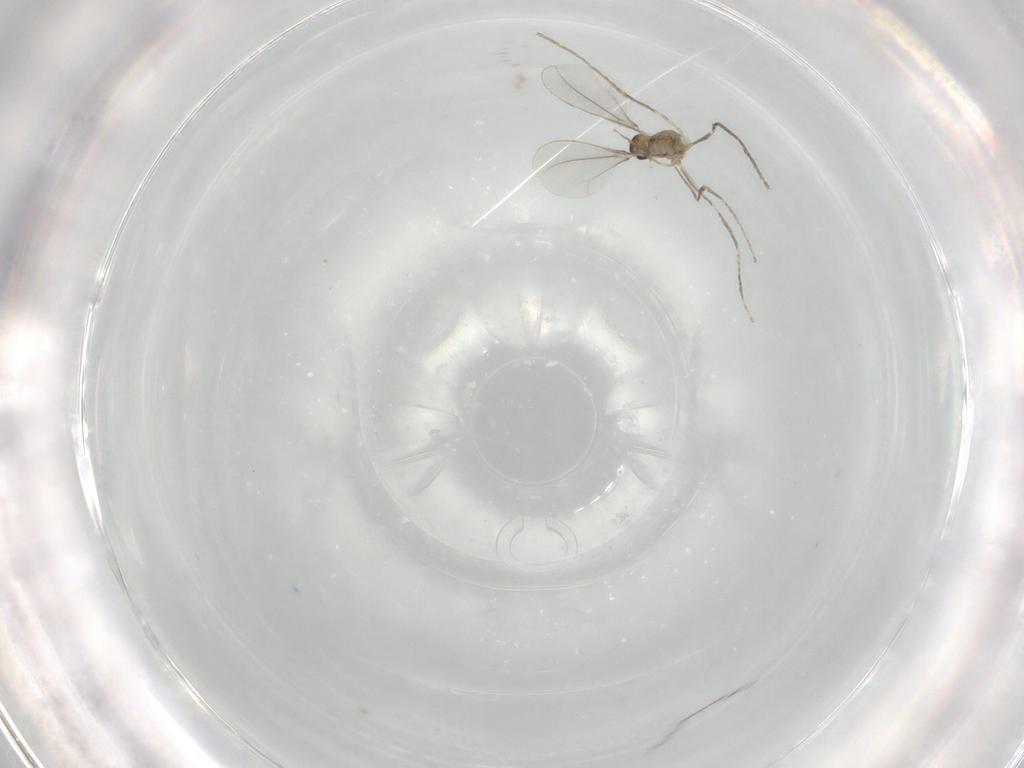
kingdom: Animalia
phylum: Arthropoda
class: Insecta
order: Diptera
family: Cecidomyiidae
